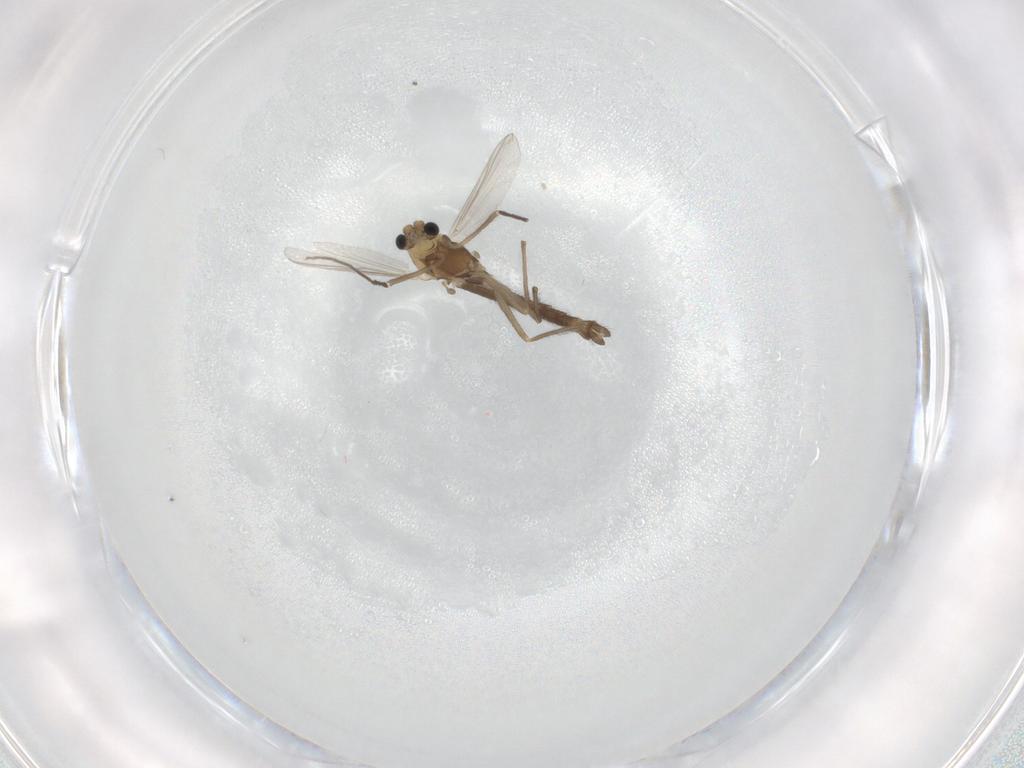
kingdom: Animalia
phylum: Arthropoda
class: Insecta
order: Diptera
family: Chironomidae
